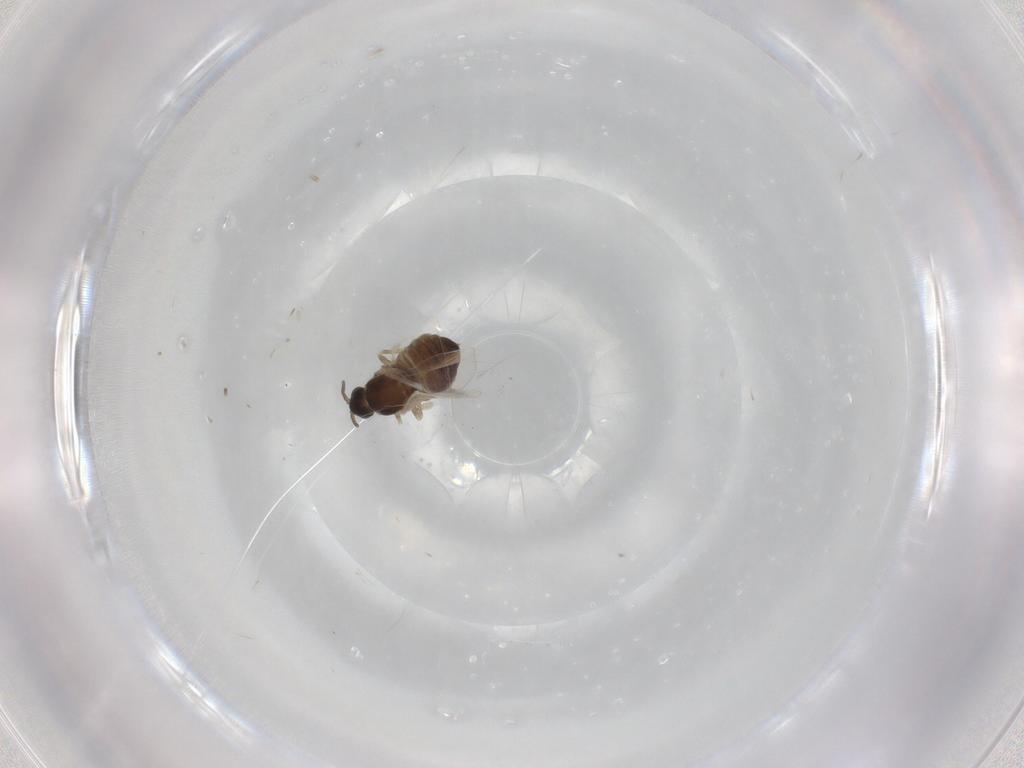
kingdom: Animalia
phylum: Arthropoda
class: Insecta
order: Diptera
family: Cecidomyiidae
